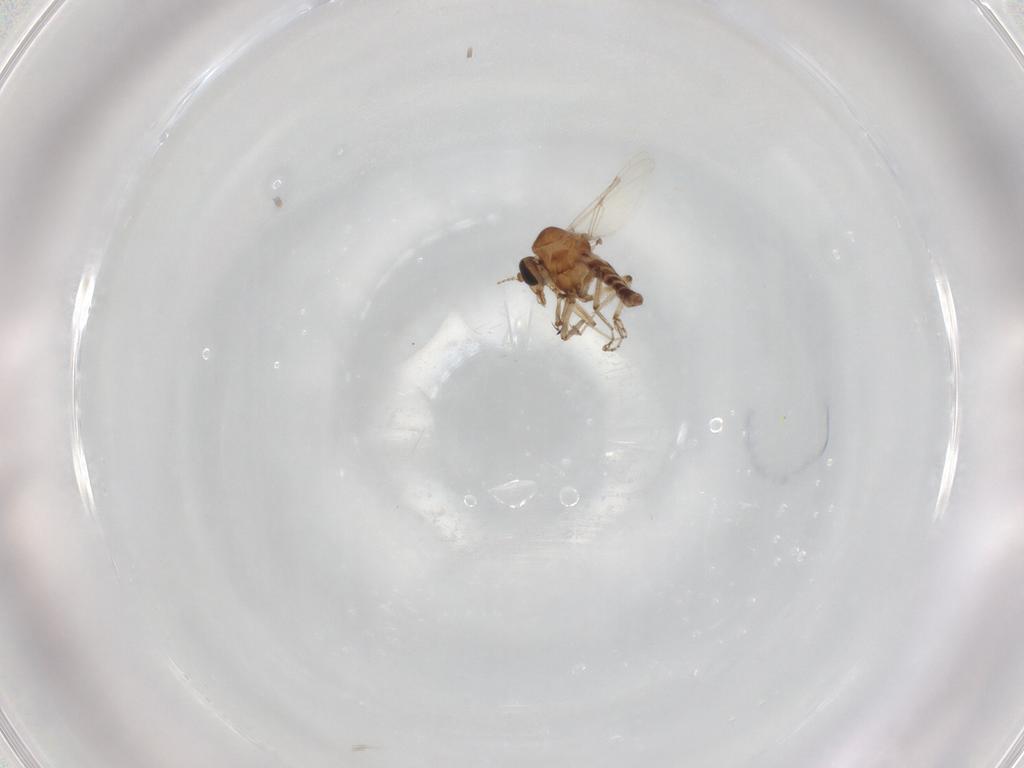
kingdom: Animalia
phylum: Arthropoda
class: Insecta
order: Diptera
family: Ceratopogonidae
